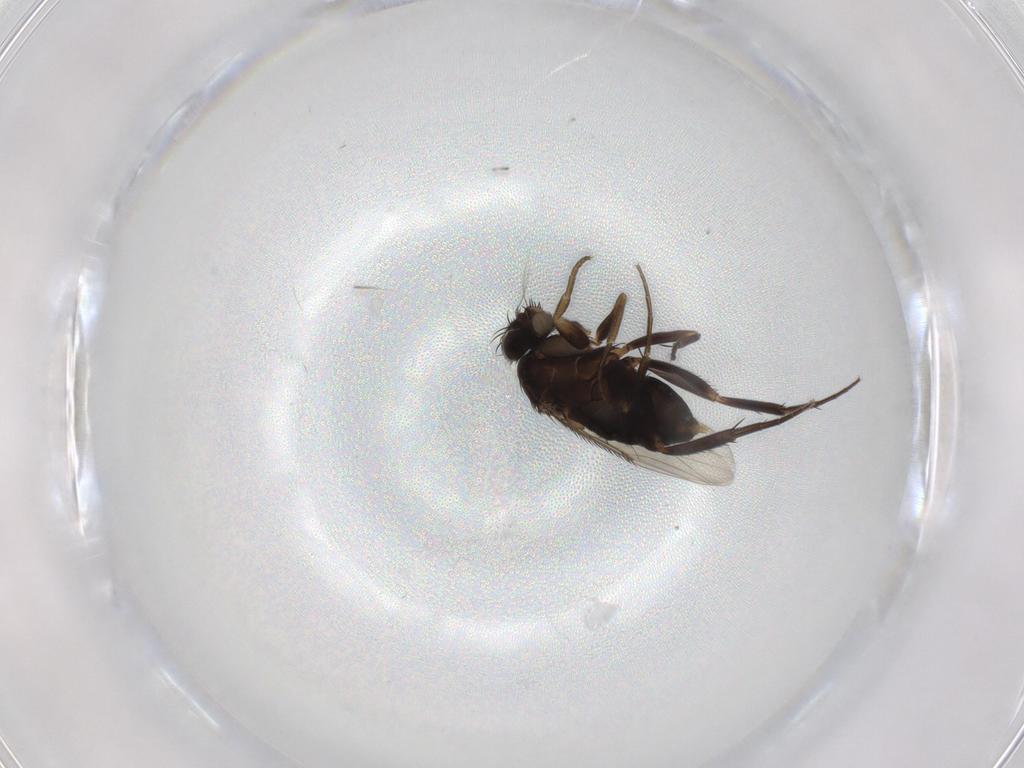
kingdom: Animalia
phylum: Arthropoda
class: Insecta
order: Diptera
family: Phoridae
